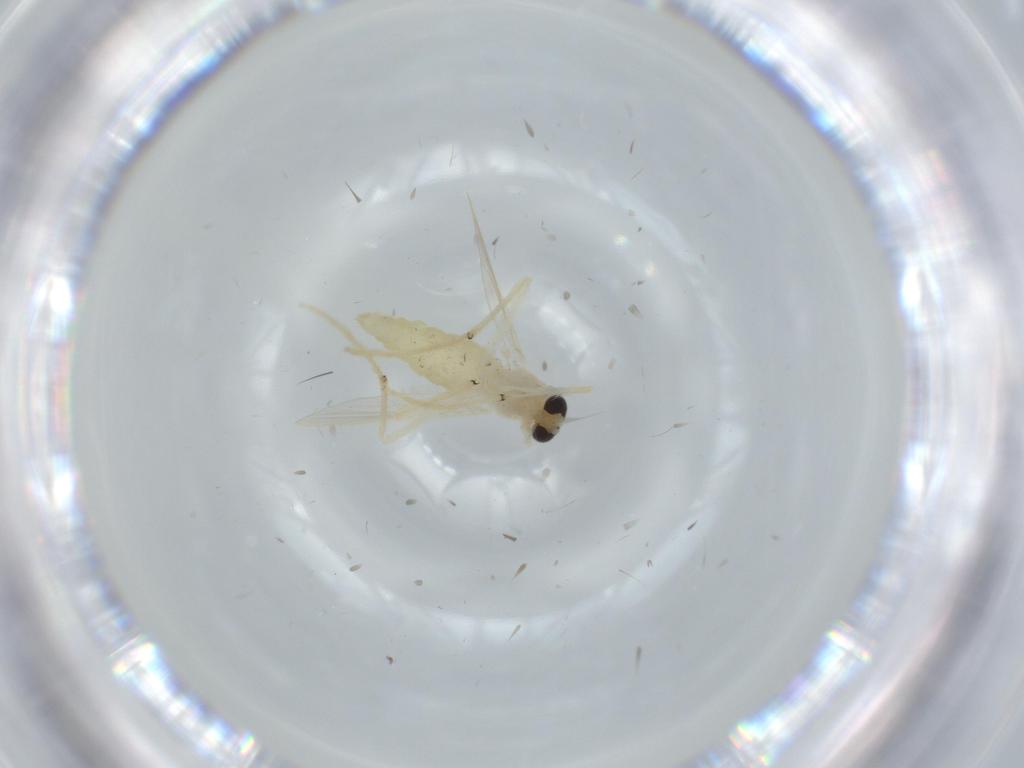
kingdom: Animalia
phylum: Arthropoda
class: Insecta
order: Diptera
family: Chironomidae
